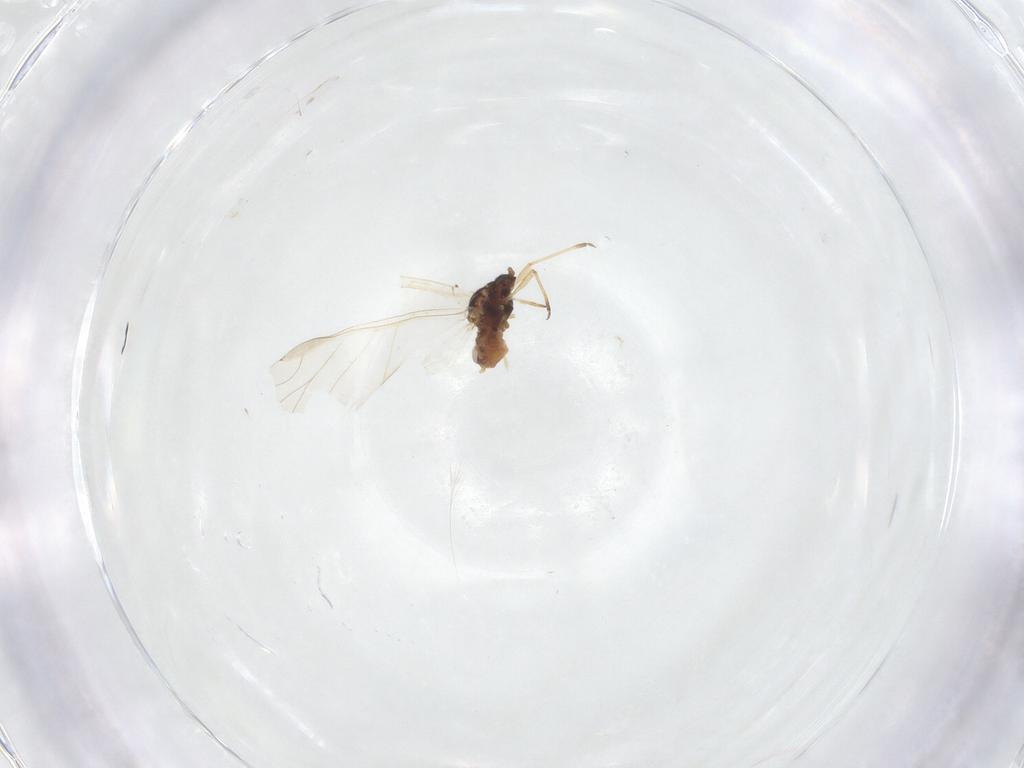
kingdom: Animalia
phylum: Arthropoda
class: Insecta
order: Hemiptera
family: Aphididae
